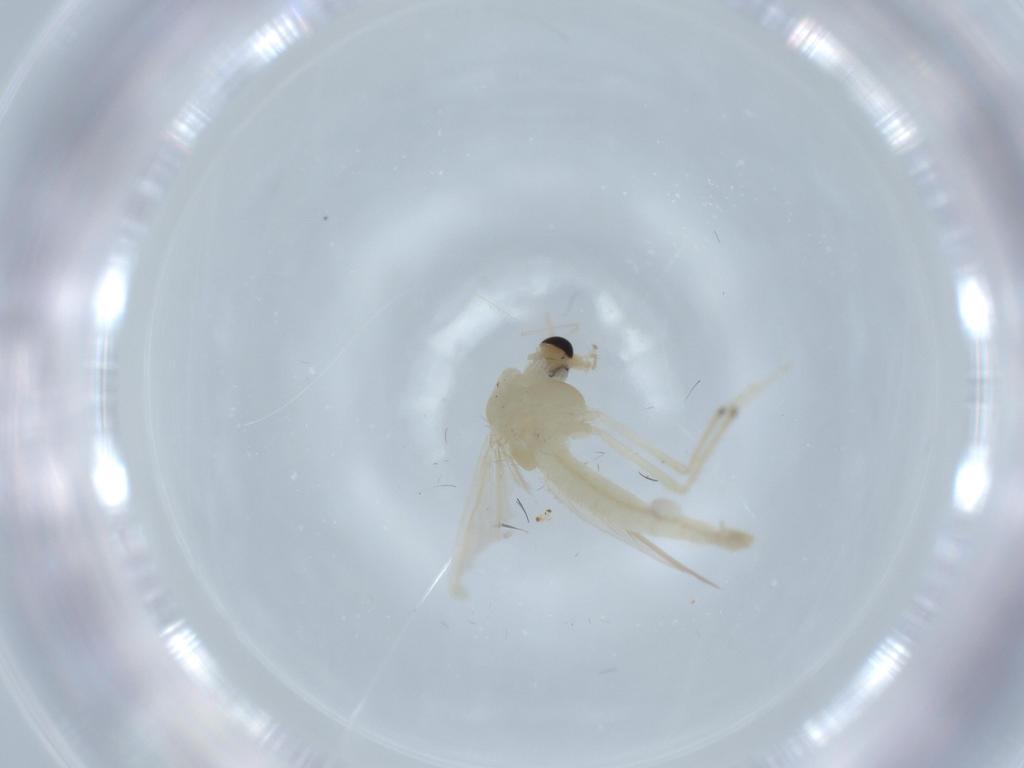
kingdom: Animalia
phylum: Arthropoda
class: Insecta
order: Diptera
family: Chironomidae
